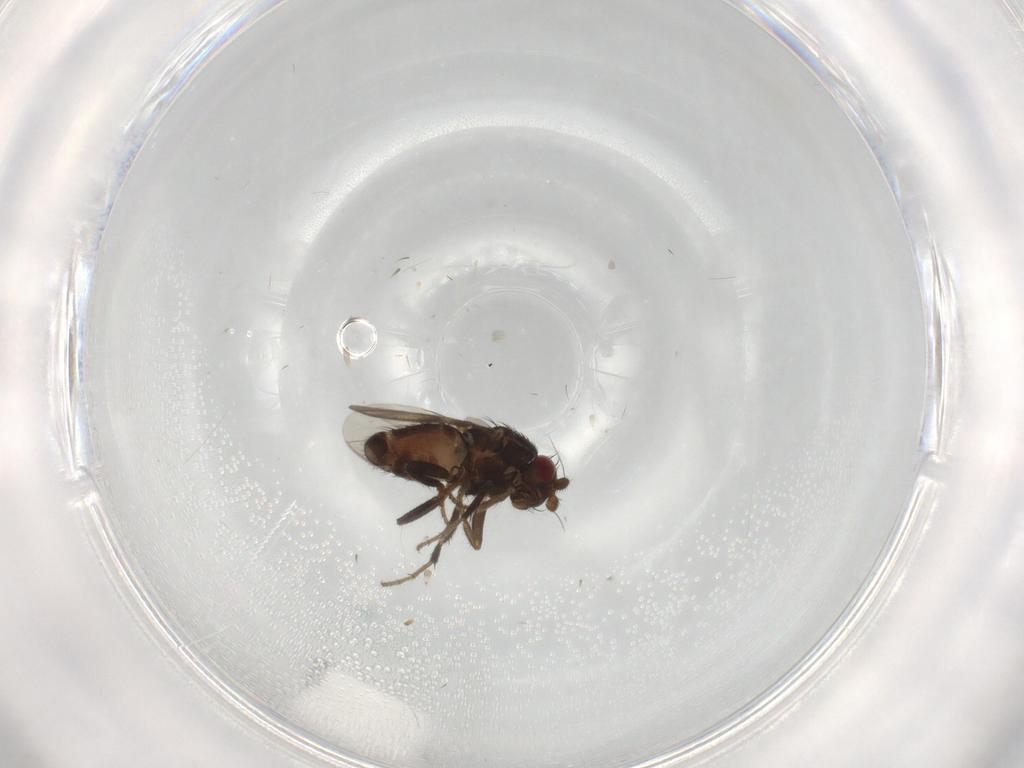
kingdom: Animalia
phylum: Arthropoda
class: Insecta
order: Diptera
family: Sphaeroceridae
